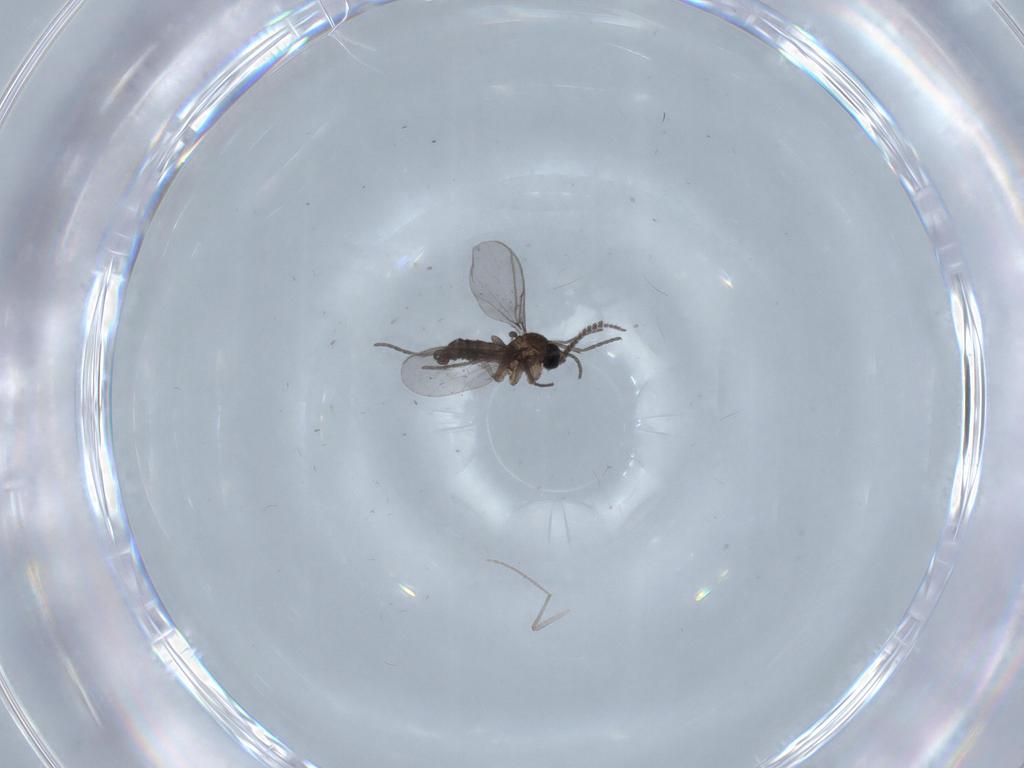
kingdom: Animalia
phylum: Arthropoda
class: Insecta
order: Diptera
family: Chironomidae
